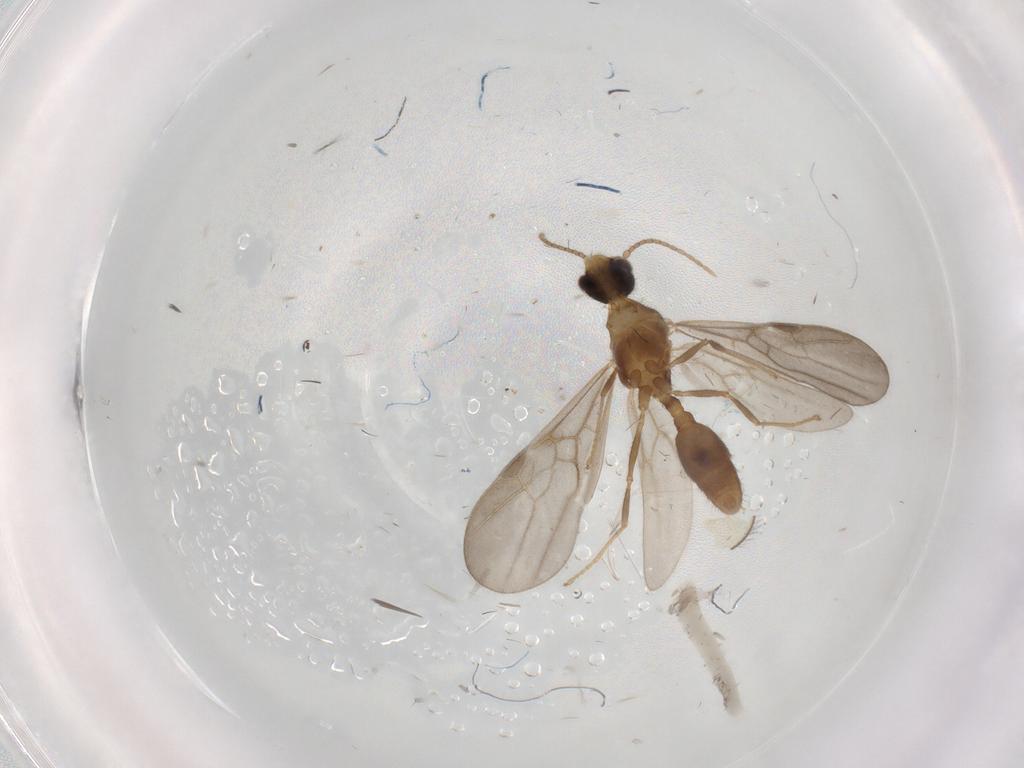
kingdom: Animalia
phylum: Arthropoda
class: Insecta
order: Hymenoptera
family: Formicidae
